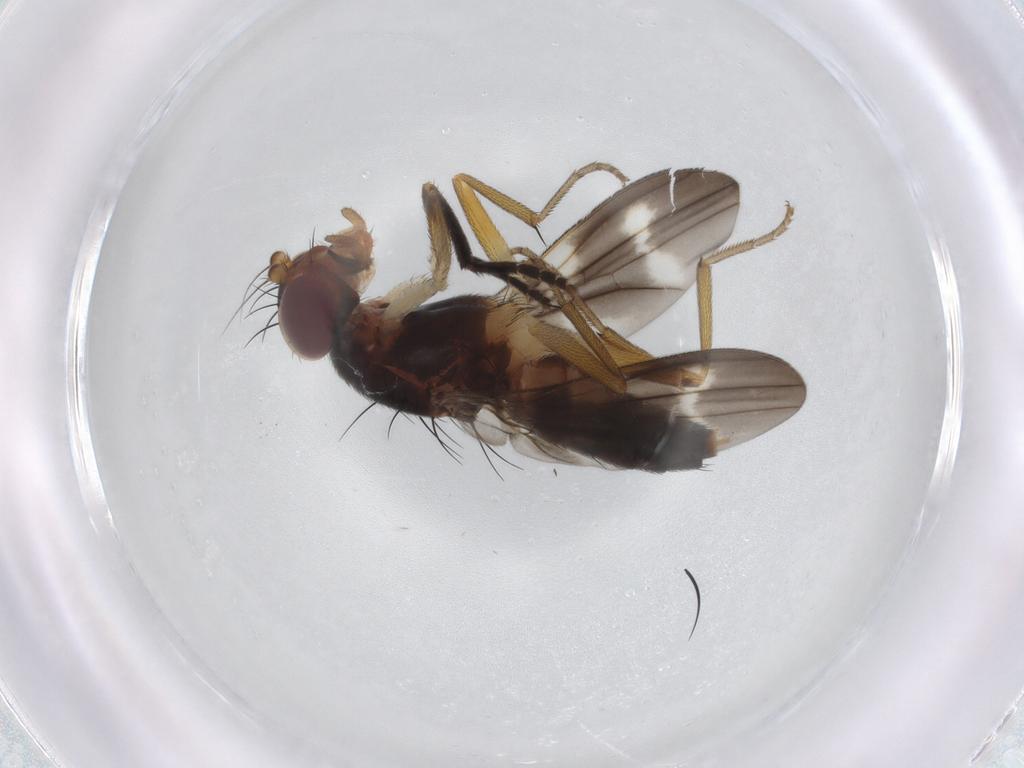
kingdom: Animalia
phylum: Arthropoda
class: Insecta
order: Diptera
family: Clusiidae
